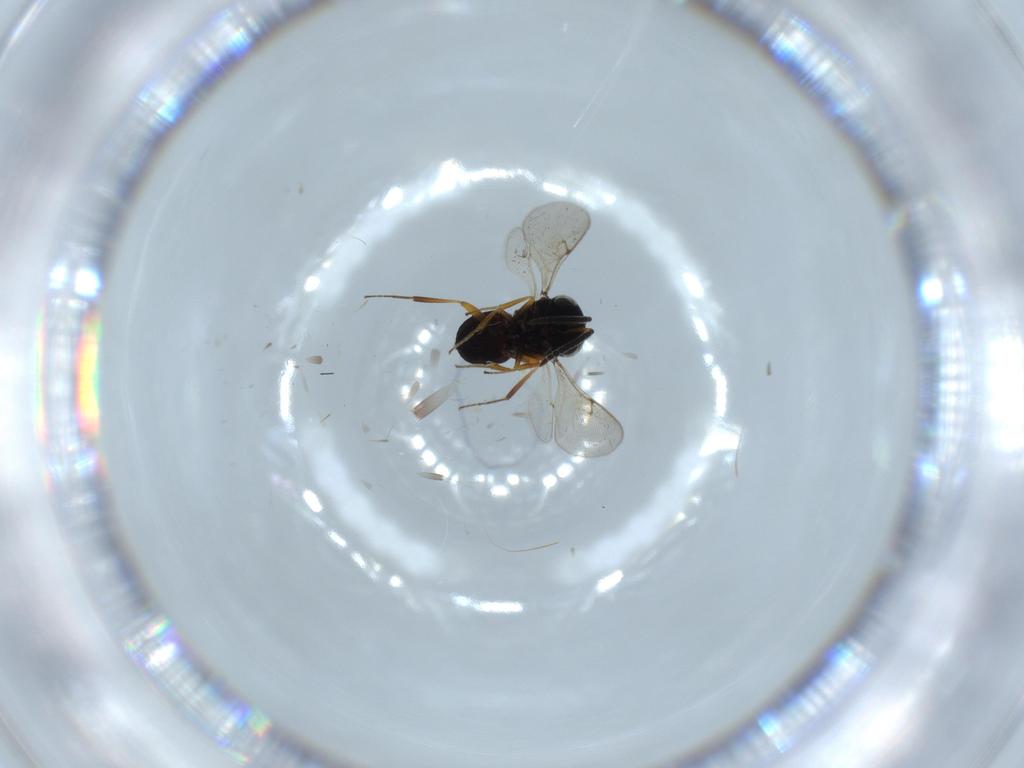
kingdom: Animalia
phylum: Arthropoda
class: Insecta
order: Hymenoptera
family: Scelionidae
